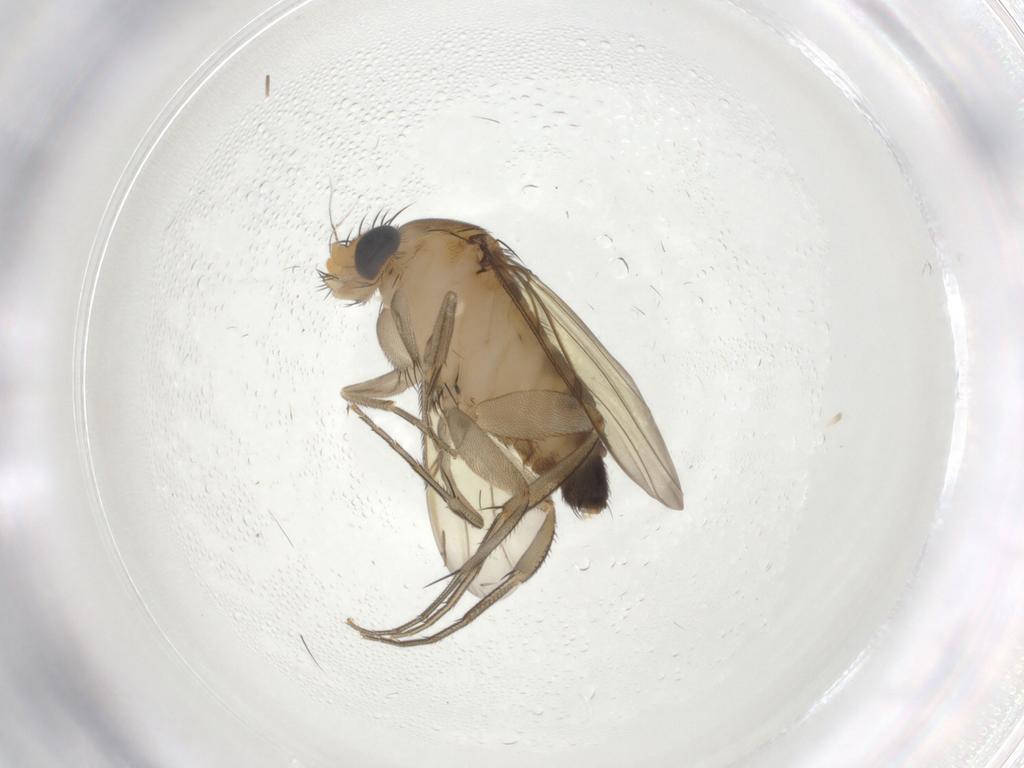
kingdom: Animalia
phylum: Arthropoda
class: Insecta
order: Diptera
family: Phoridae
